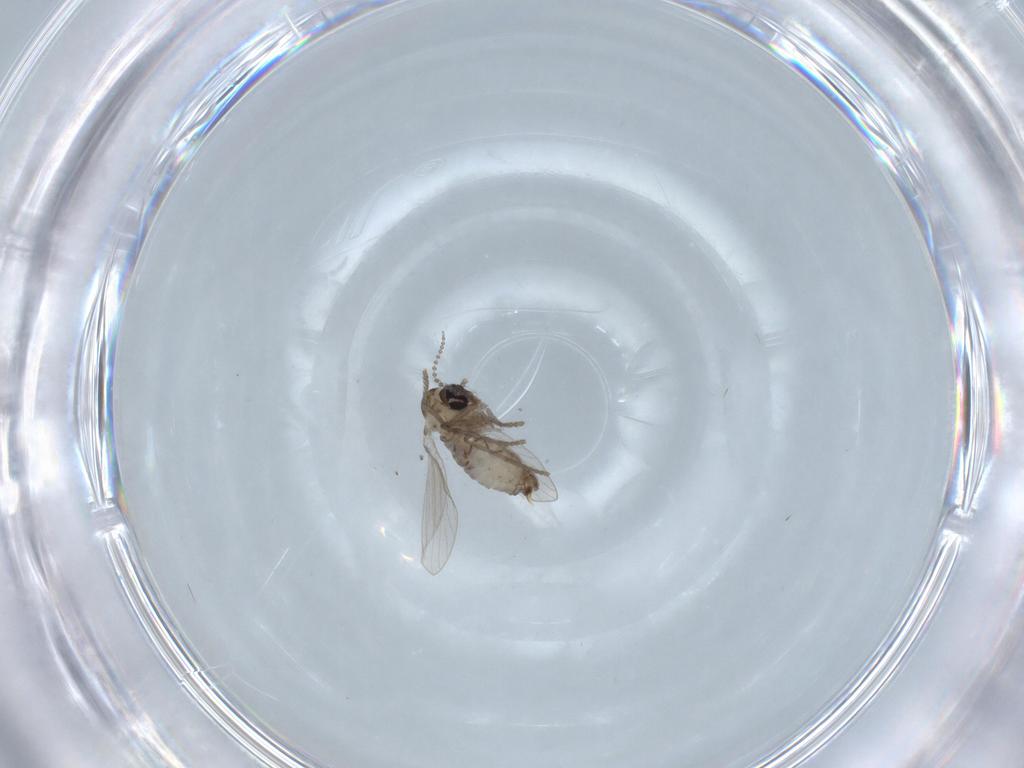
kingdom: Animalia
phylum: Arthropoda
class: Insecta
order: Diptera
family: Psychodidae
